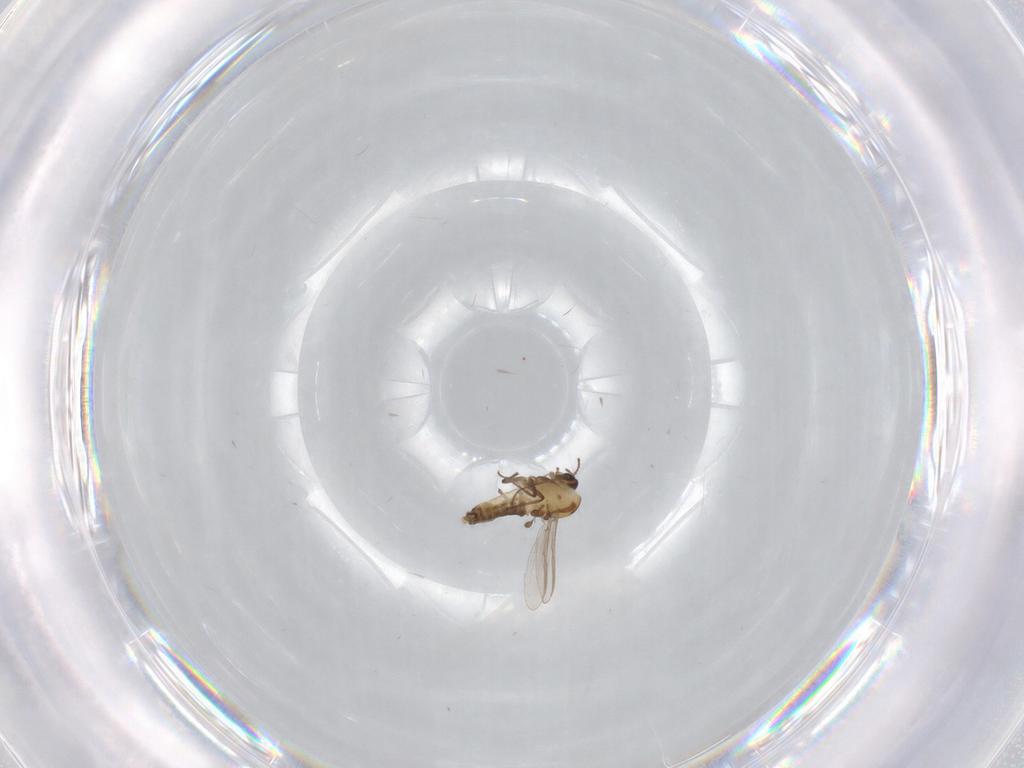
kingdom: Animalia
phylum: Arthropoda
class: Insecta
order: Diptera
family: Chironomidae
